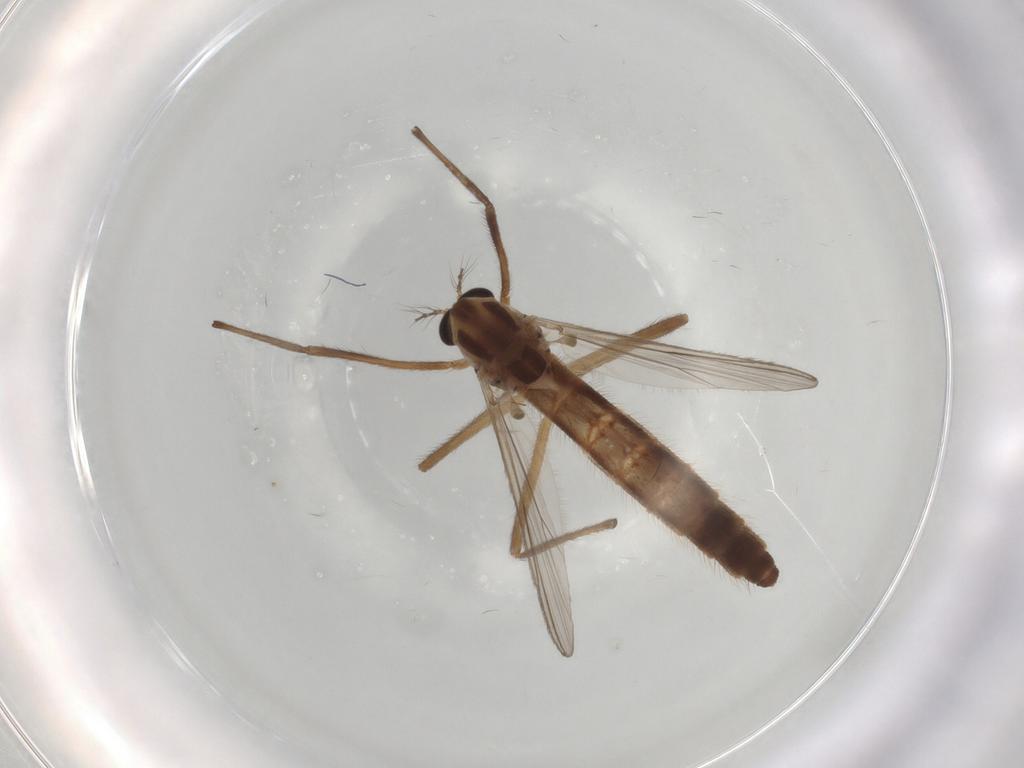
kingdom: Animalia
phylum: Arthropoda
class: Insecta
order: Diptera
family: Chironomidae
